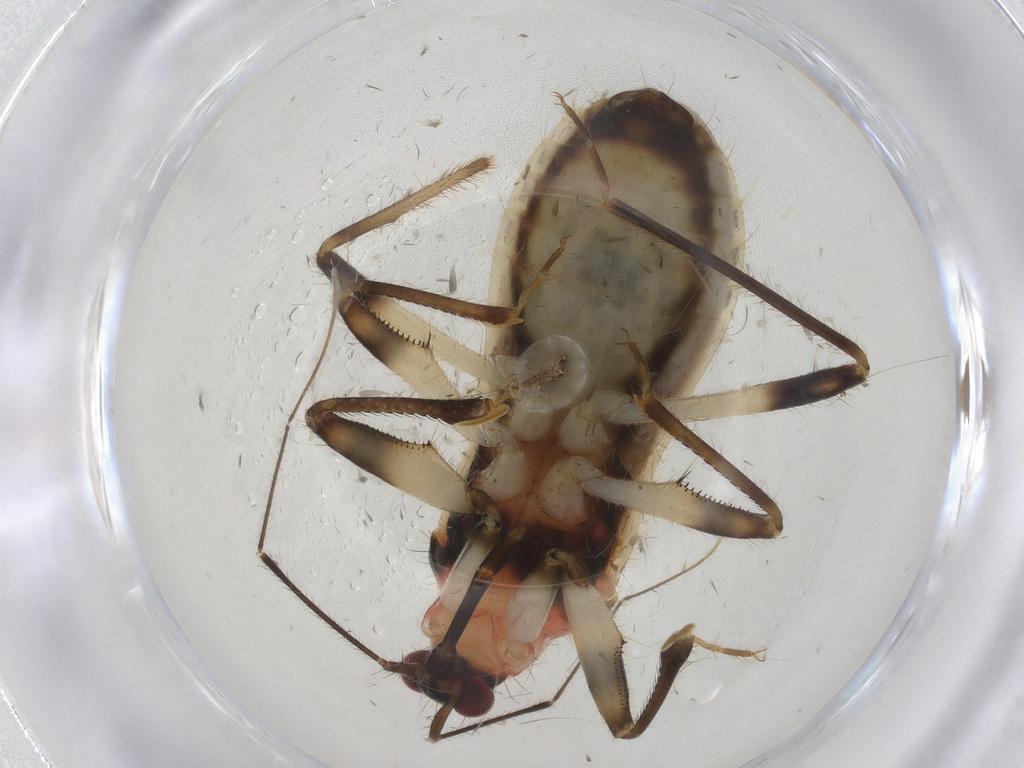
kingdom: Animalia
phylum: Arthropoda
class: Insecta
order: Hemiptera
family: Nabidae
